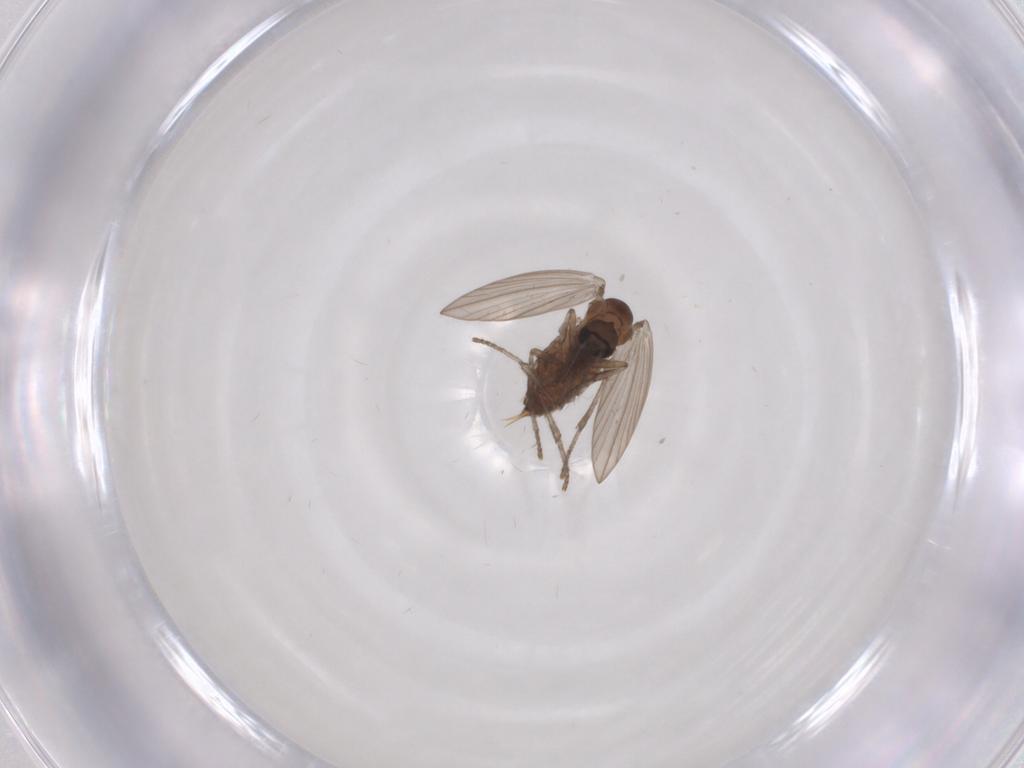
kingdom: Animalia
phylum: Arthropoda
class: Insecta
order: Diptera
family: Psychodidae
